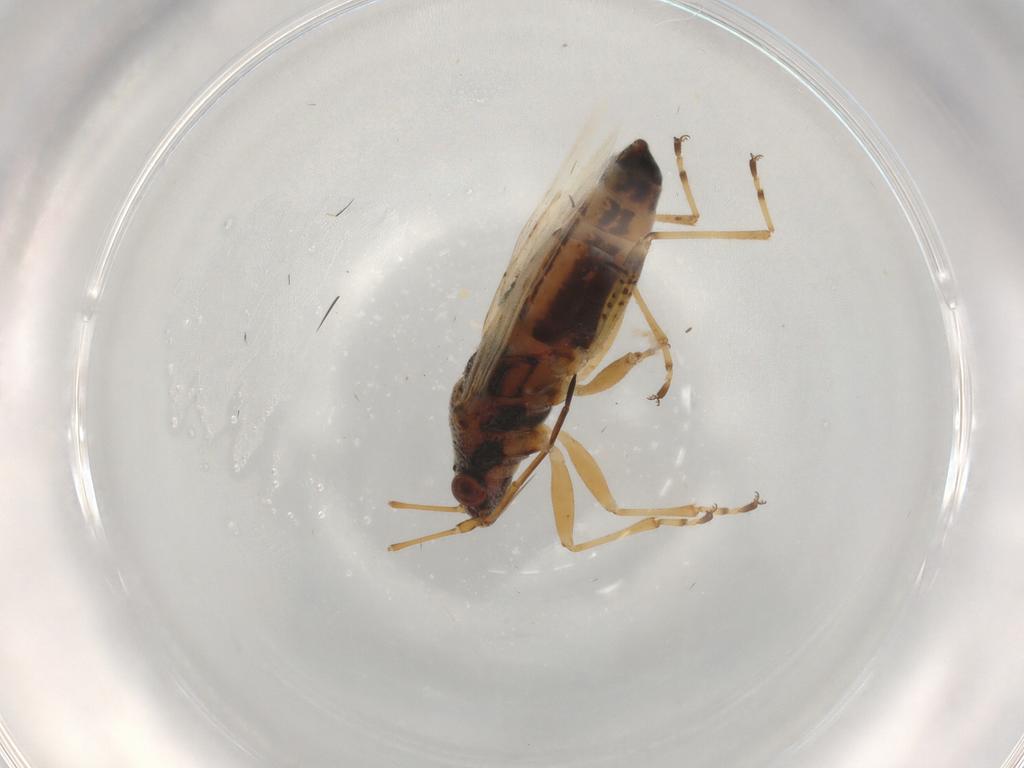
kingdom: Animalia
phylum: Arthropoda
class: Insecta
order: Hemiptera
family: Lygaeidae
